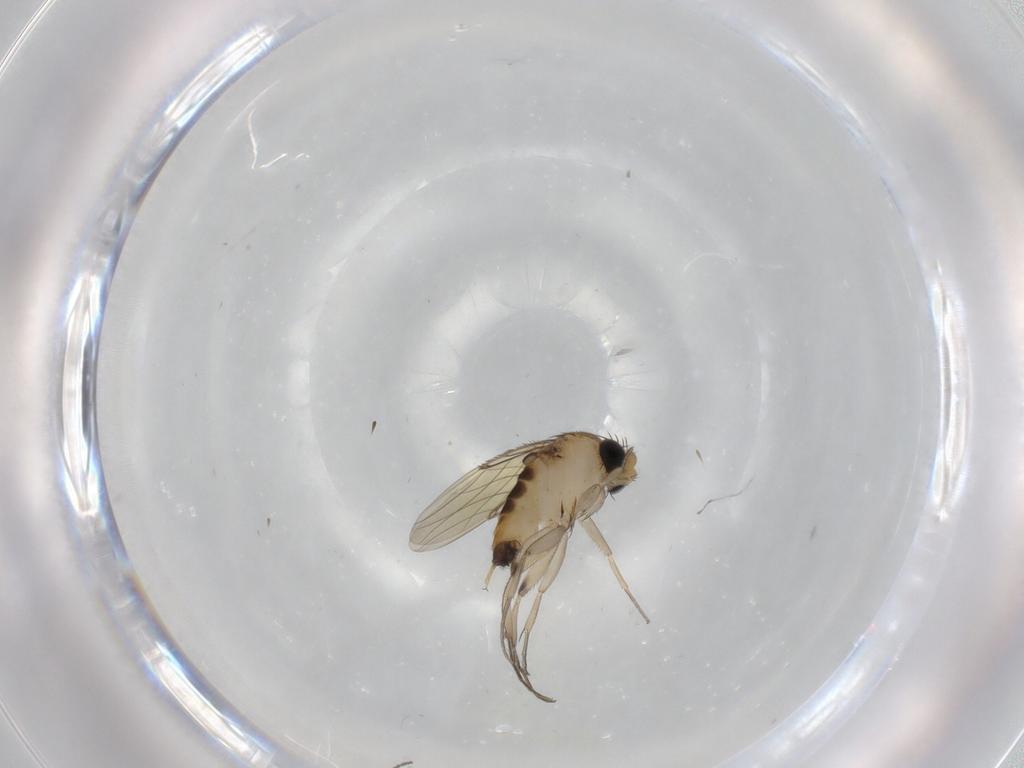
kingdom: Animalia
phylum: Arthropoda
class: Insecta
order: Diptera
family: Cecidomyiidae
